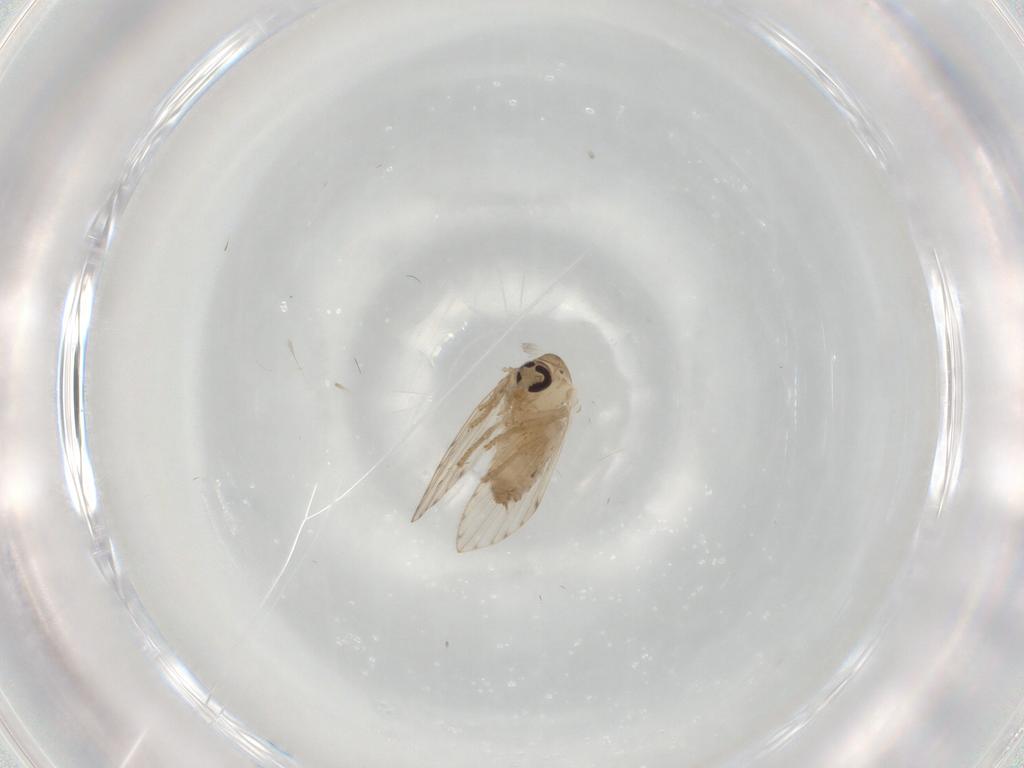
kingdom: Animalia
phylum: Arthropoda
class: Insecta
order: Diptera
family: Psychodidae
